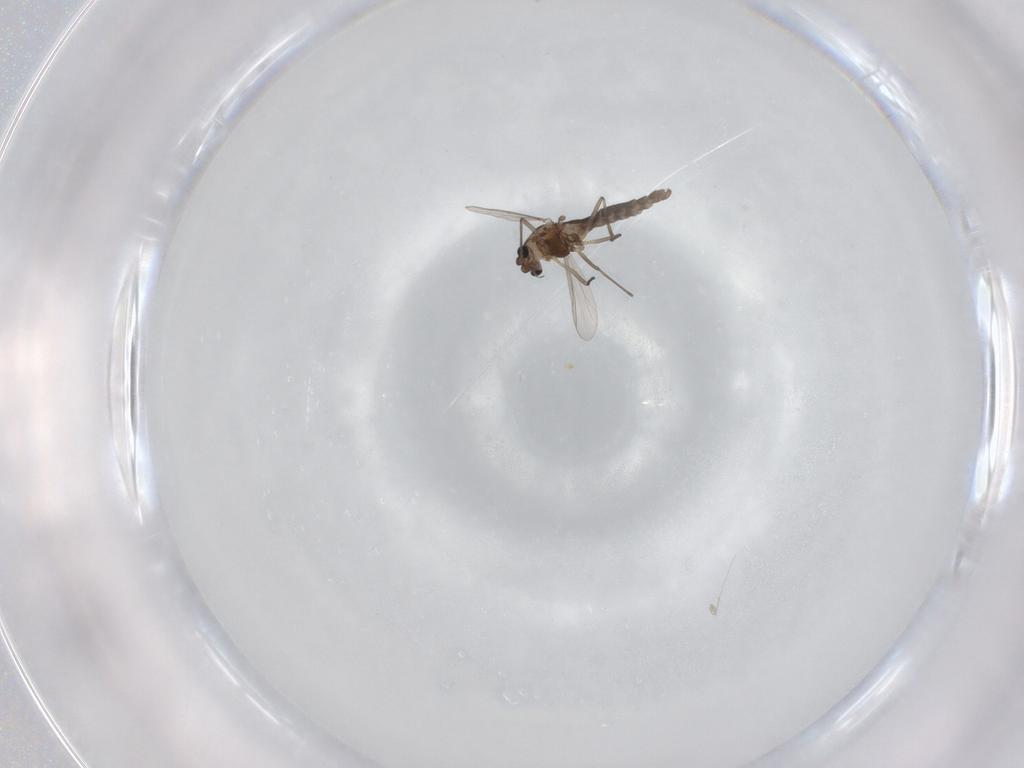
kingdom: Animalia
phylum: Arthropoda
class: Insecta
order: Diptera
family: Chironomidae
